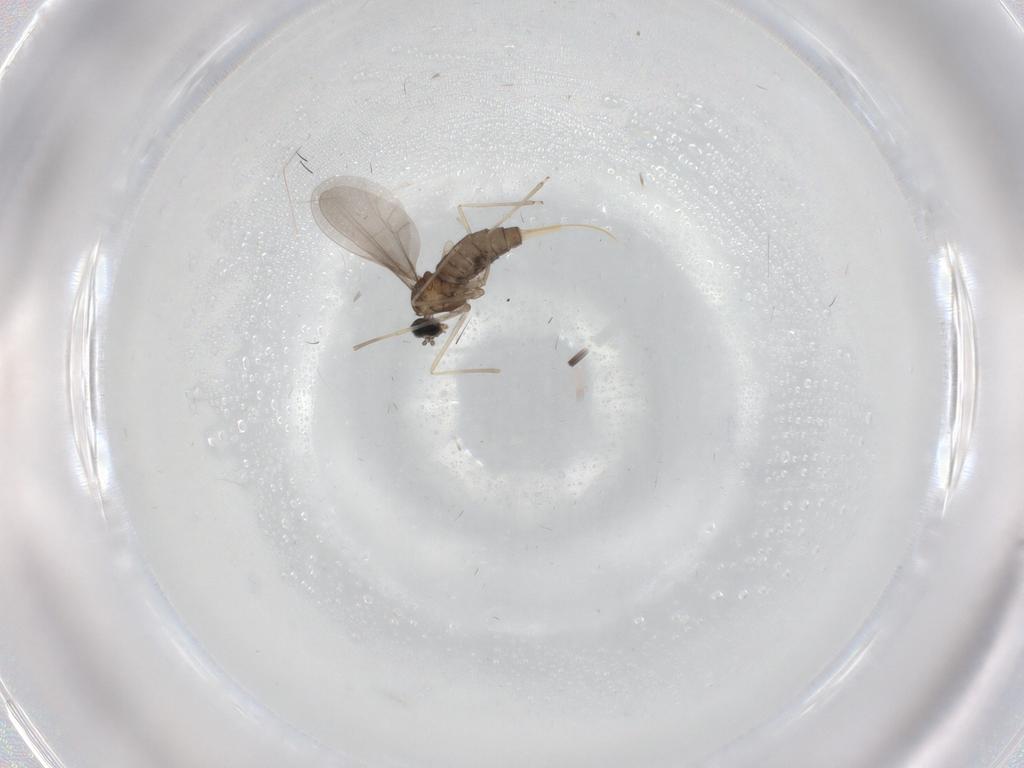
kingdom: Animalia
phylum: Arthropoda
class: Insecta
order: Diptera
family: Cecidomyiidae
